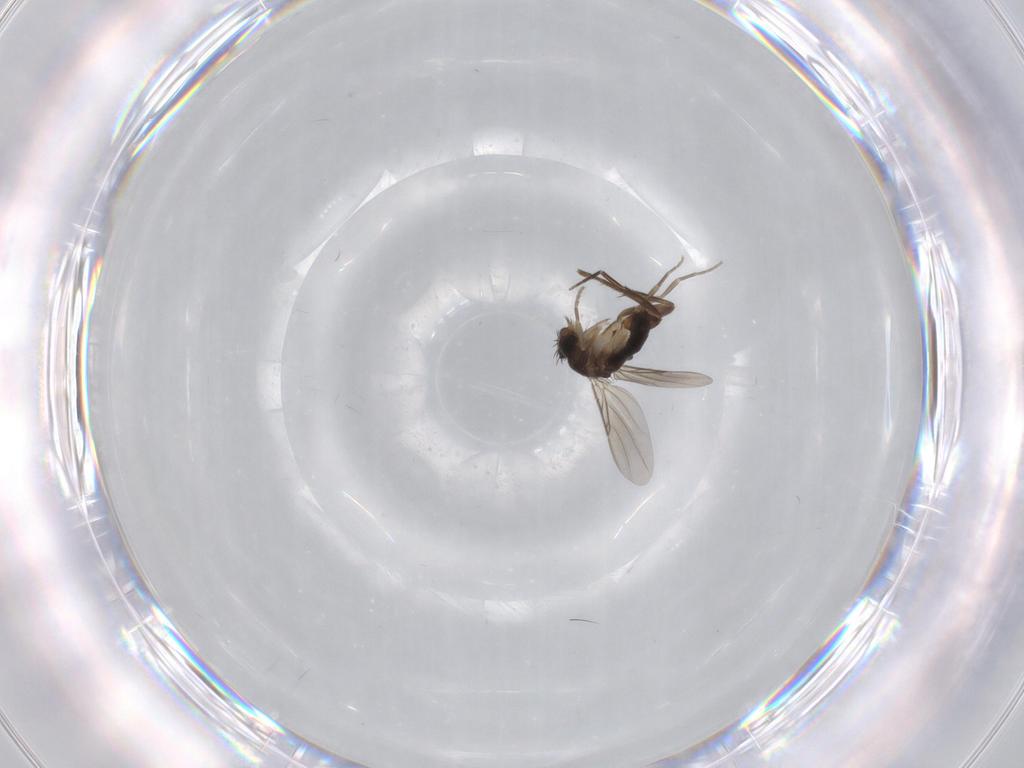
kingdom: Animalia
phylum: Arthropoda
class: Insecta
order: Diptera
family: Phoridae
